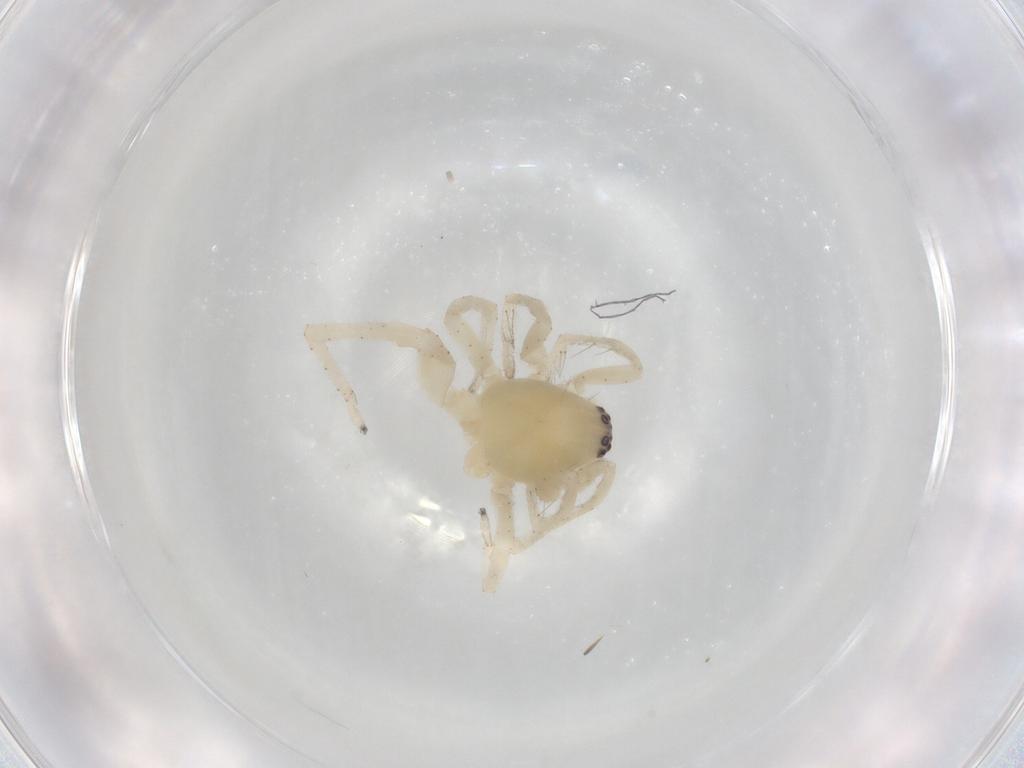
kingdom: Animalia
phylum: Arthropoda
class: Arachnida
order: Araneae
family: Clubionidae
